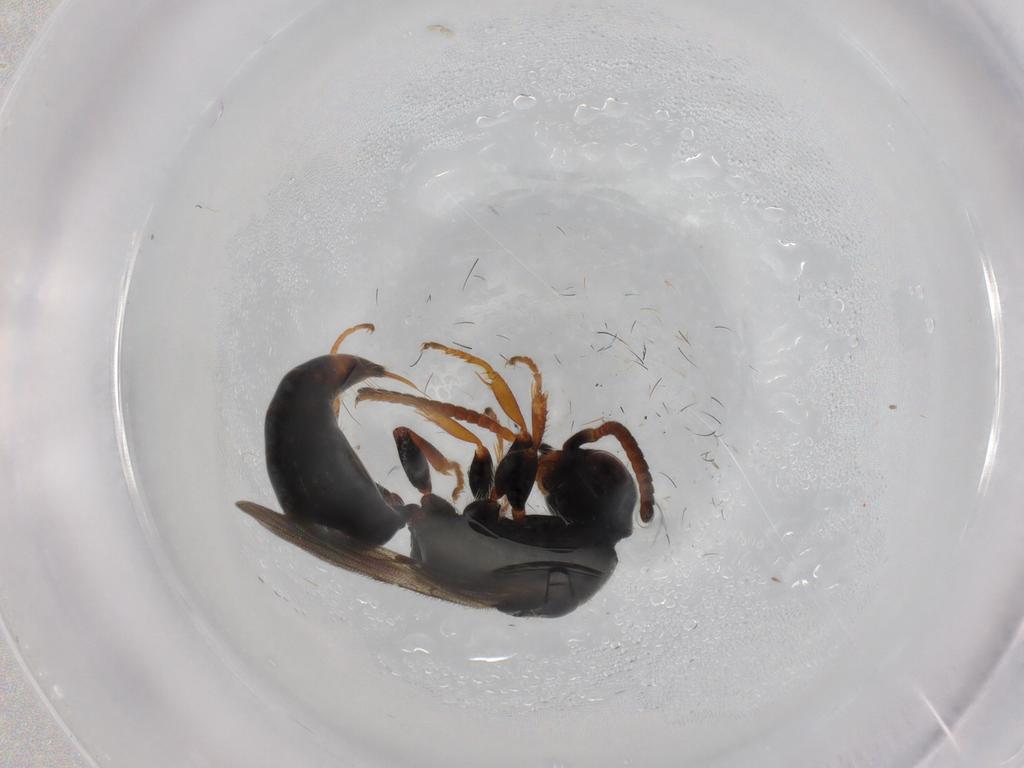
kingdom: Animalia
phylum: Arthropoda
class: Insecta
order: Hymenoptera
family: Bethylidae
